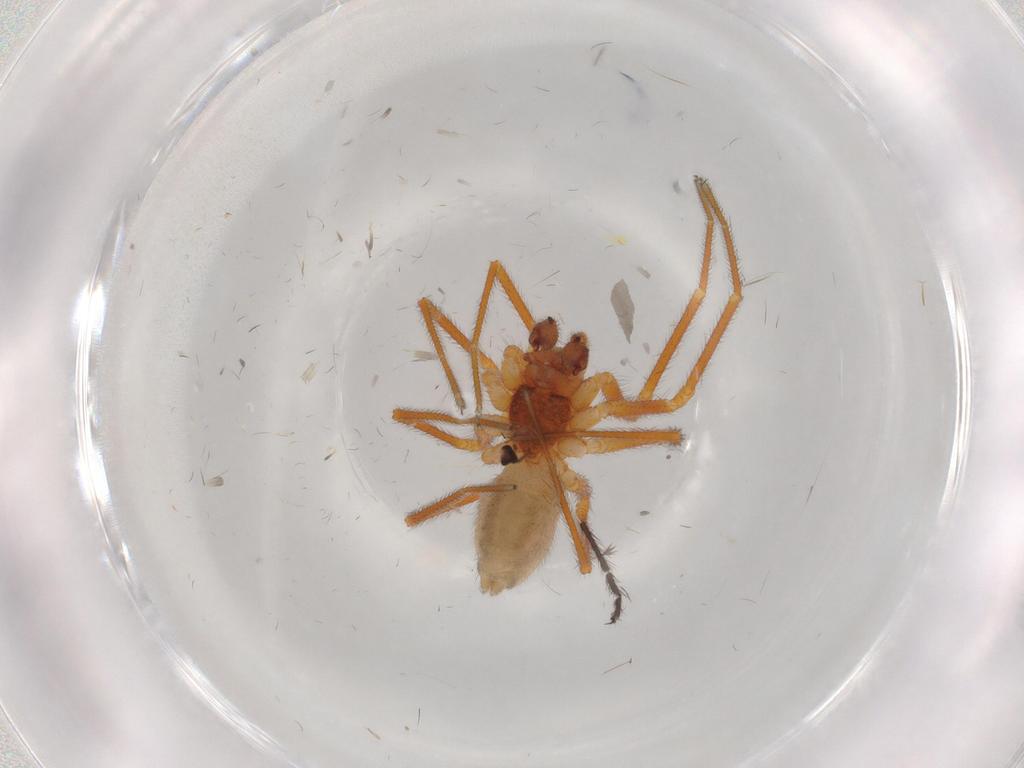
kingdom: Animalia
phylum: Arthropoda
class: Arachnida
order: Araneae
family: Linyphiidae
